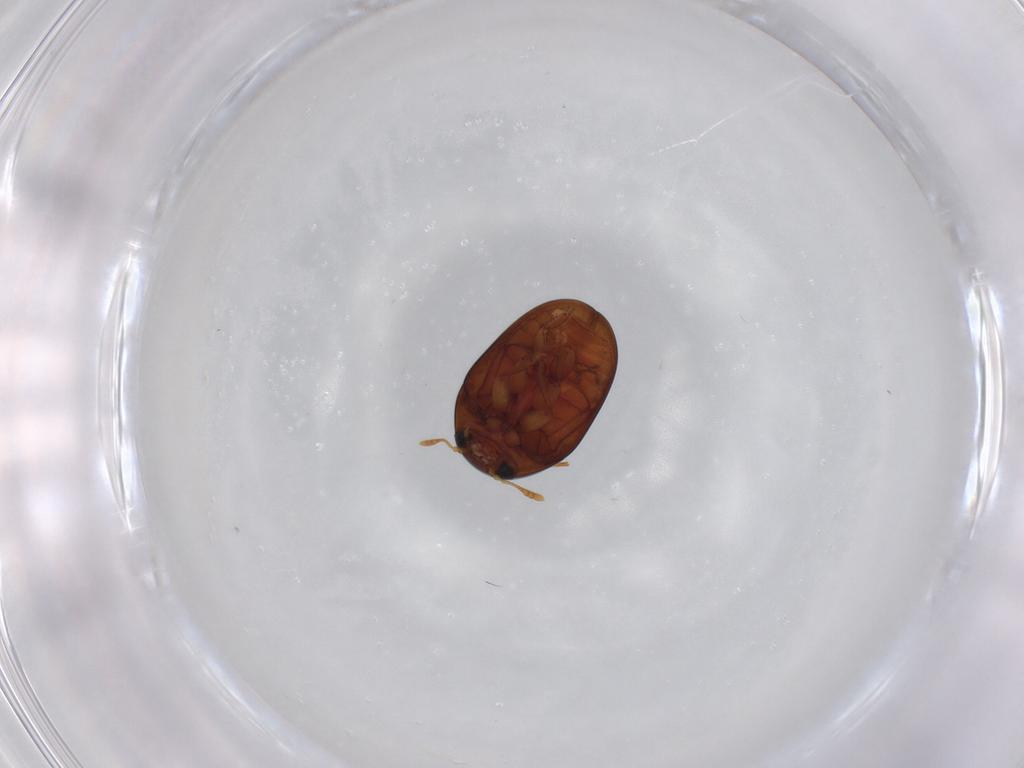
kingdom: Animalia
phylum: Arthropoda
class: Insecta
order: Coleoptera
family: Phalacridae
